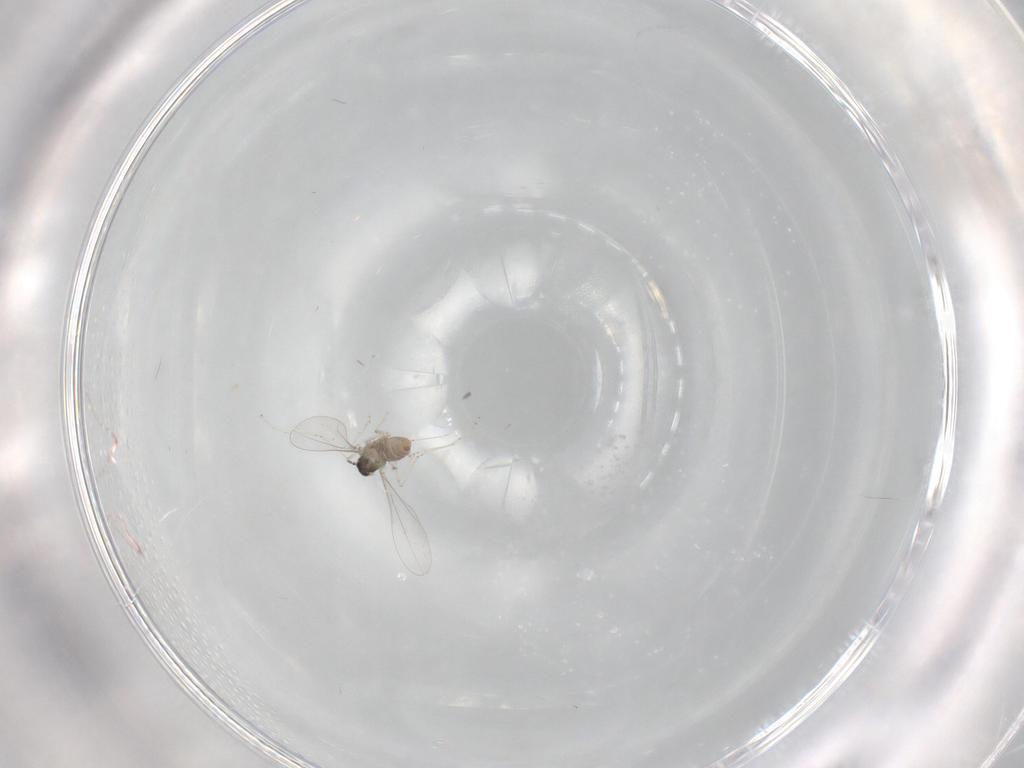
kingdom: Animalia
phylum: Arthropoda
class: Insecta
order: Diptera
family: Cecidomyiidae
